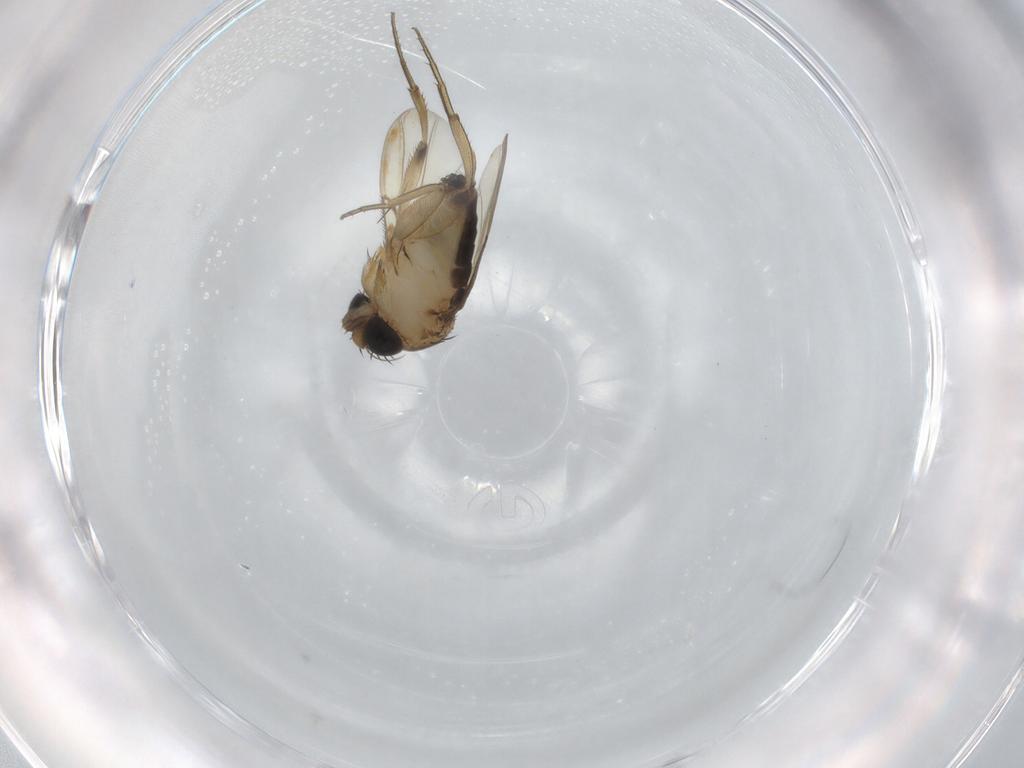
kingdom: Animalia
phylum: Arthropoda
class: Insecta
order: Diptera
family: Phoridae
